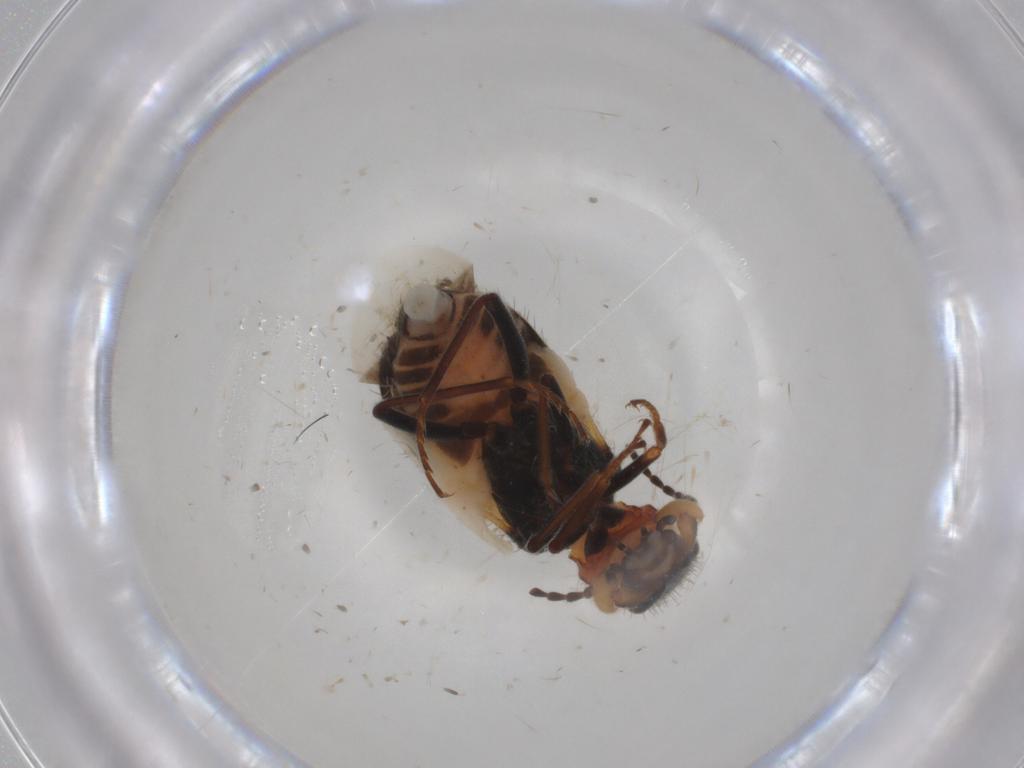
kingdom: Animalia
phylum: Arthropoda
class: Insecta
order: Coleoptera
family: Melyridae
